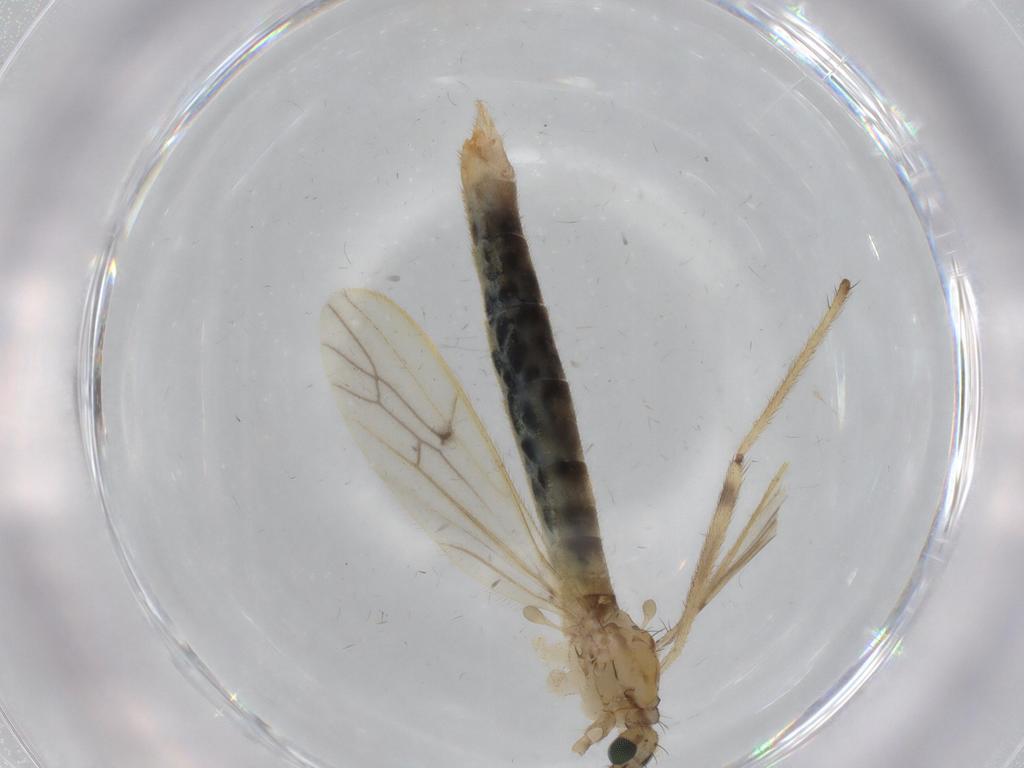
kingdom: Animalia
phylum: Arthropoda
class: Insecta
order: Diptera
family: Limoniidae
